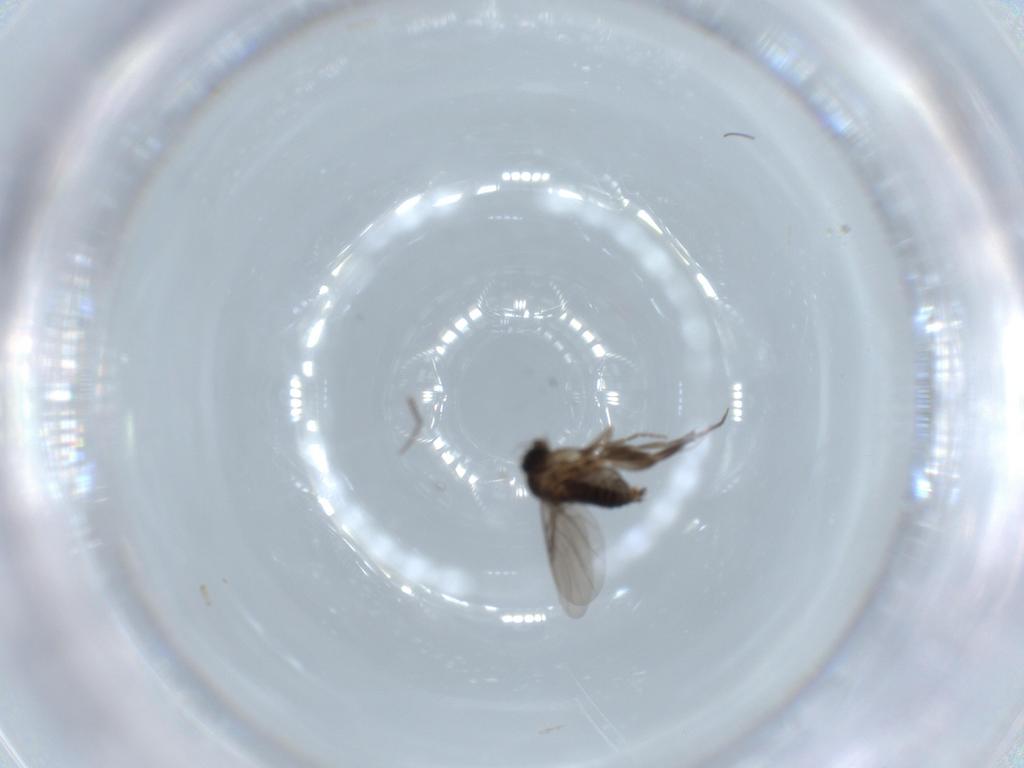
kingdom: Animalia
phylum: Arthropoda
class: Insecta
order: Diptera
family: Phoridae
